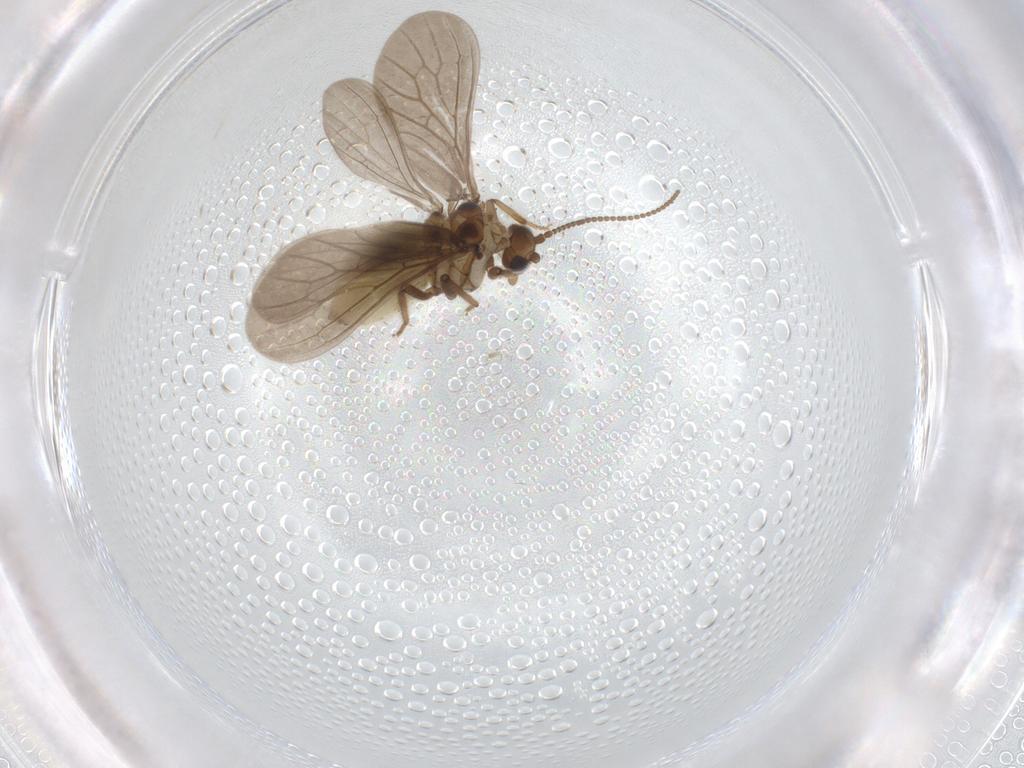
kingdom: Animalia
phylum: Arthropoda
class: Insecta
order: Neuroptera
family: Coniopterygidae
